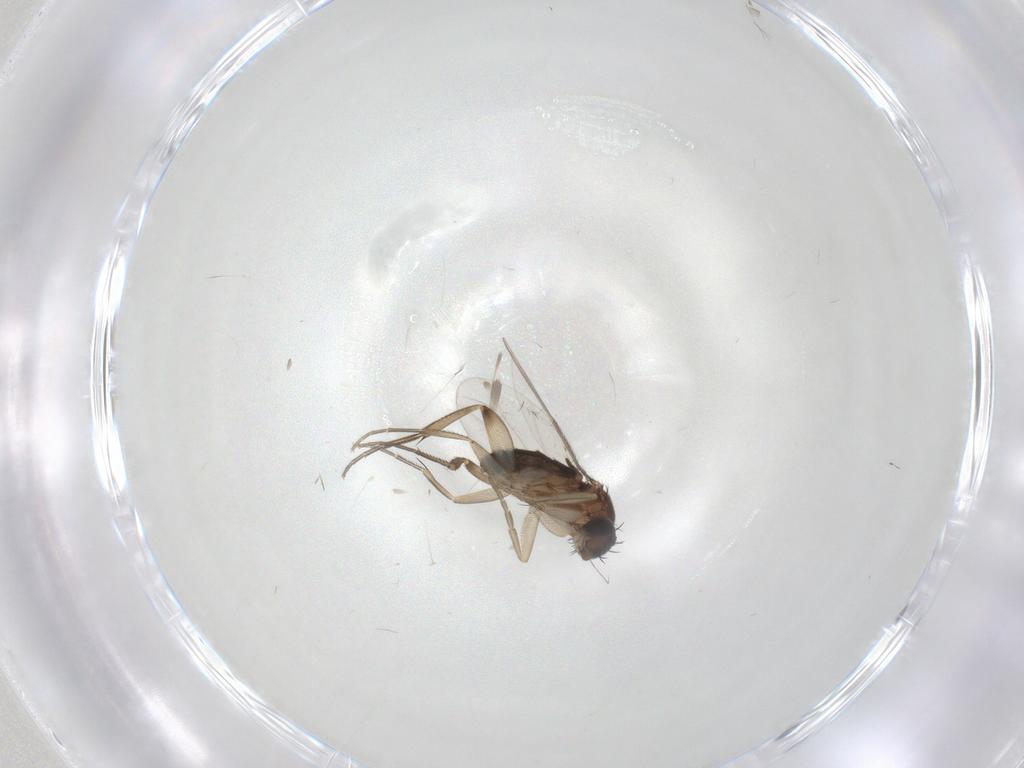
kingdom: Animalia
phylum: Arthropoda
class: Insecta
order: Diptera
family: Phoridae
